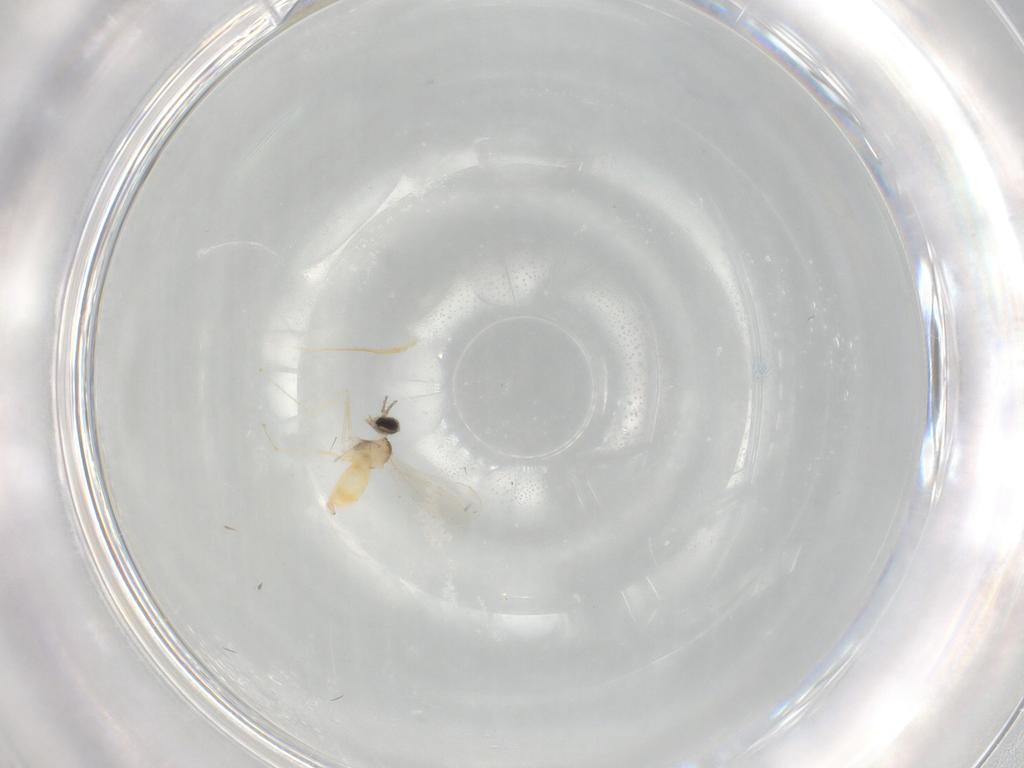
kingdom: Animalia
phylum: Arthropoda
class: Insecta
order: Diptera
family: Cecidomyiidae
